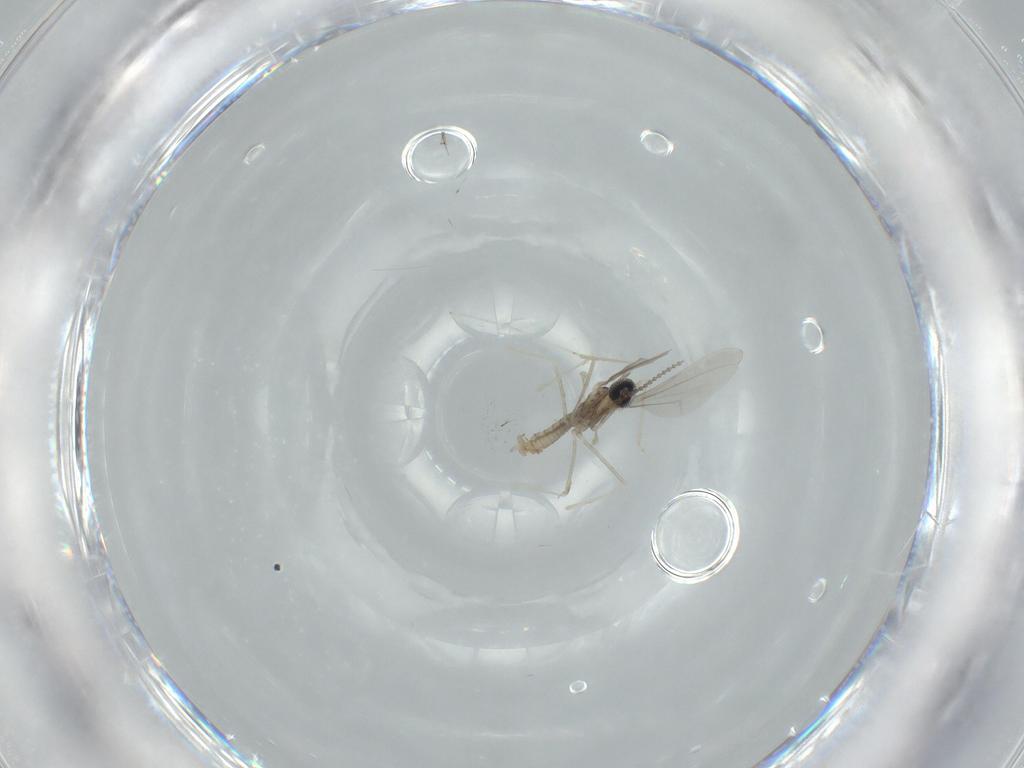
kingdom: Animalia
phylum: Arthropoda
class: Insecta
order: Diptera
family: Cecidomyiidae
